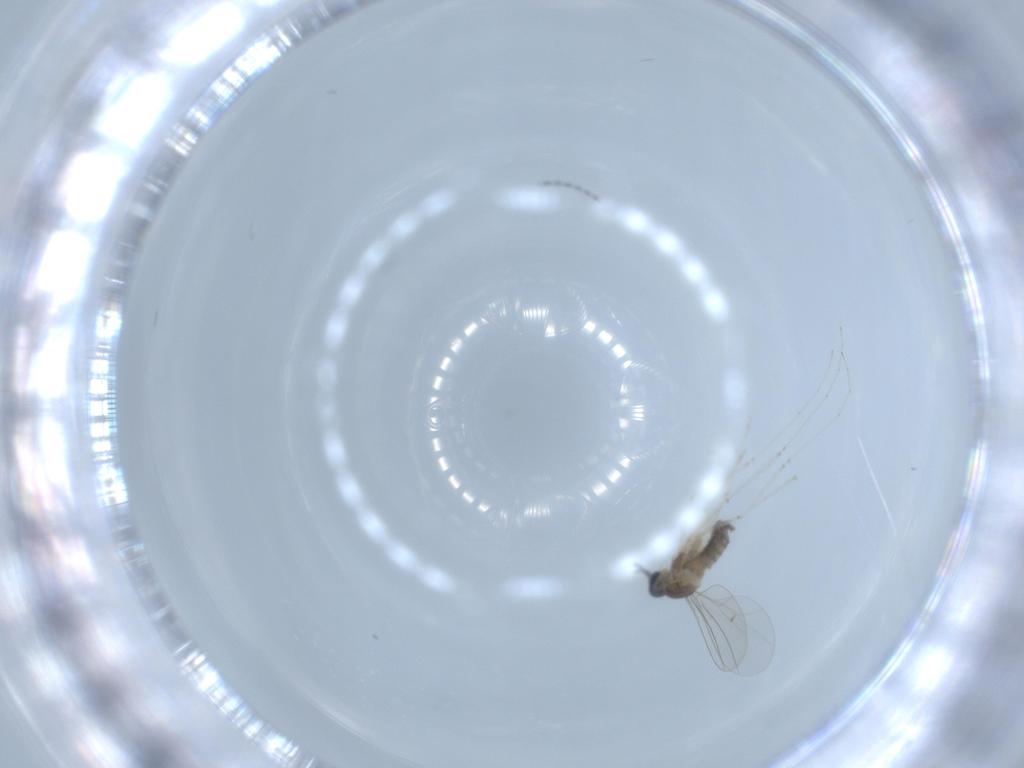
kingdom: Animalia
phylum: Arthropoda
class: Insecta
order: Diptera
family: Cecidomyiidae
